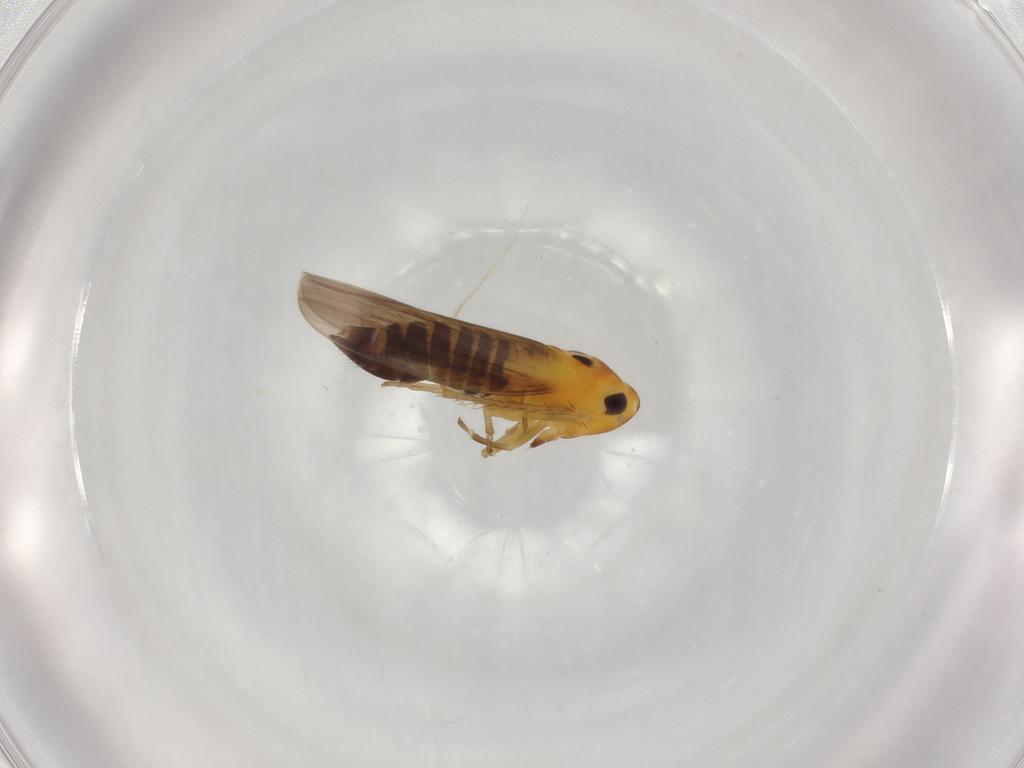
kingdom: Animalia
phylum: Arthropoda
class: Insecta
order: Hemiptera
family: Cicadellidae
